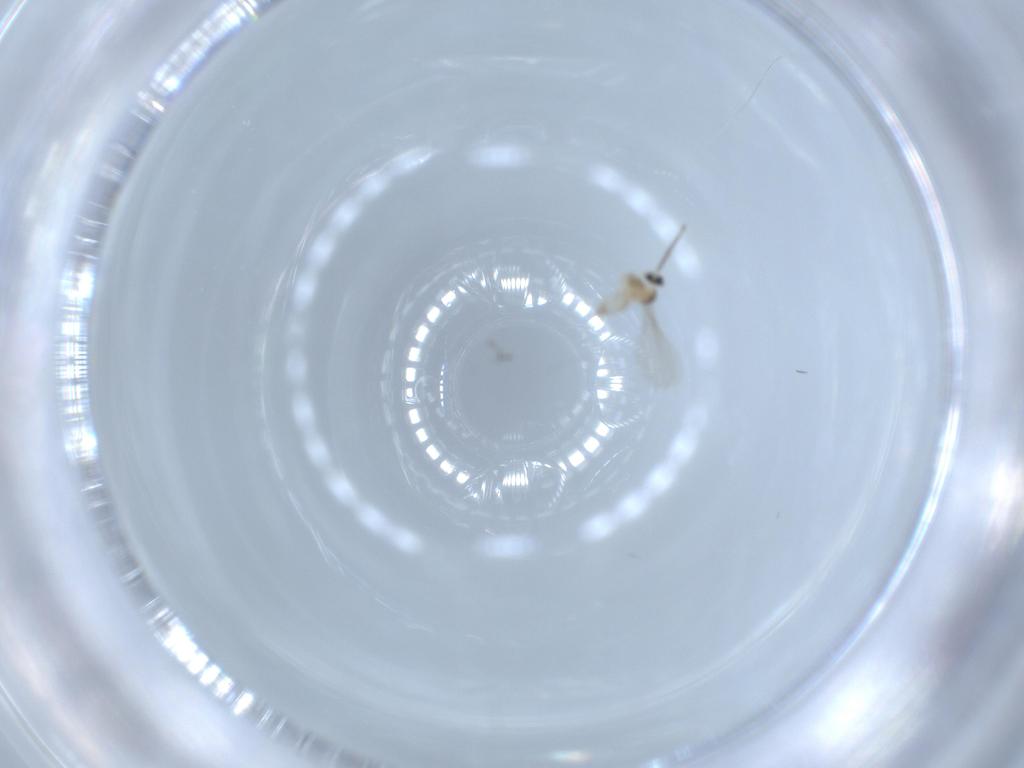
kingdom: Animalia
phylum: Arthropoda
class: Insecta
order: Diptera
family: Cecidomyiidae
